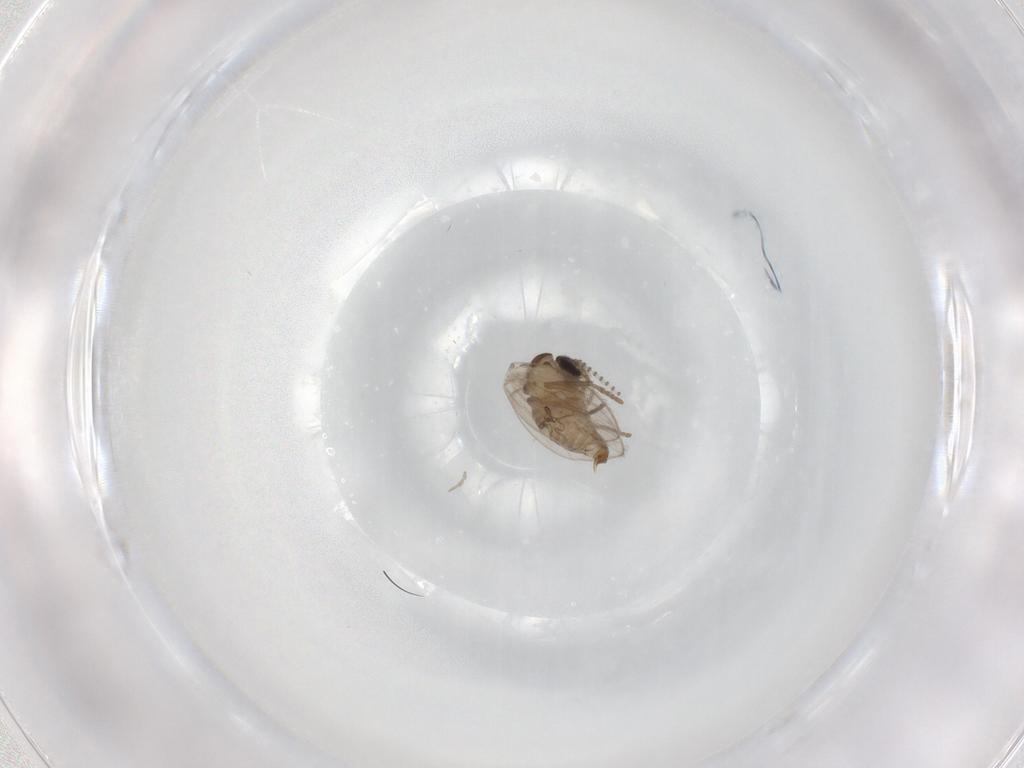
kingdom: Animalia
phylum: Arthropoda
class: Insecta
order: Diptera
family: Psychodidae
